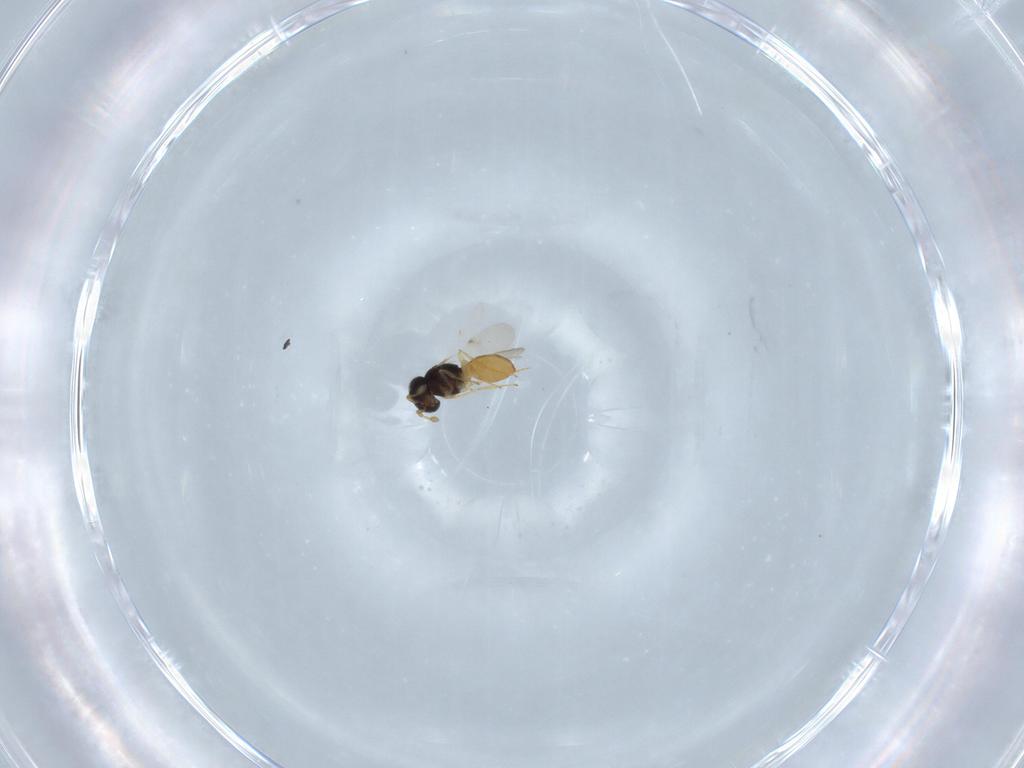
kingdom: Animalia
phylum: Arthropoda
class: Insecta
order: Hymenoptera
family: Scelionidae
